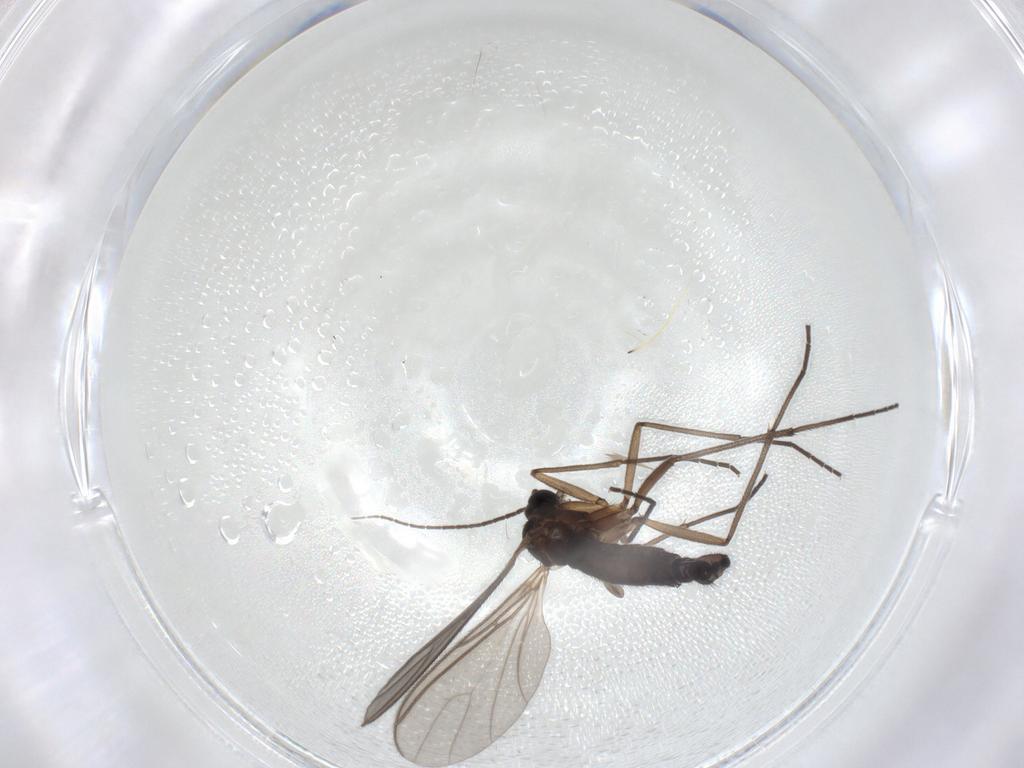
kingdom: Animalia
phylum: Arthropoda
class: Insecta
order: Diptera
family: Sciaridae
